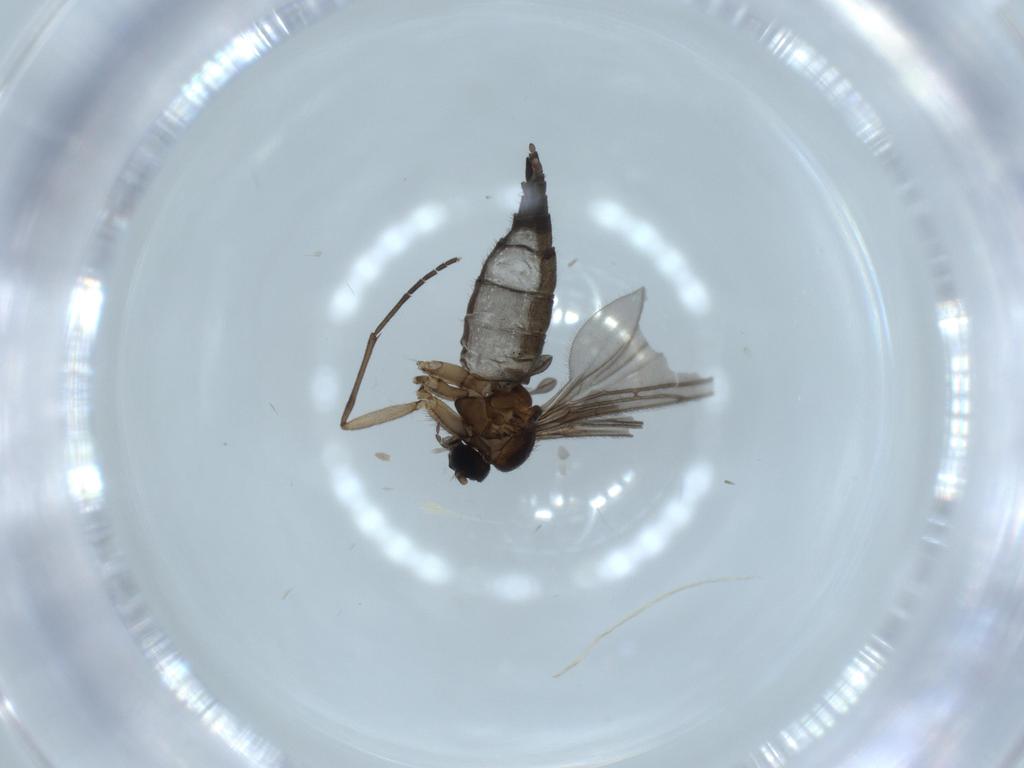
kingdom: Animalia
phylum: Arthropoda
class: Insecta
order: Diptera
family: Sciaridae
